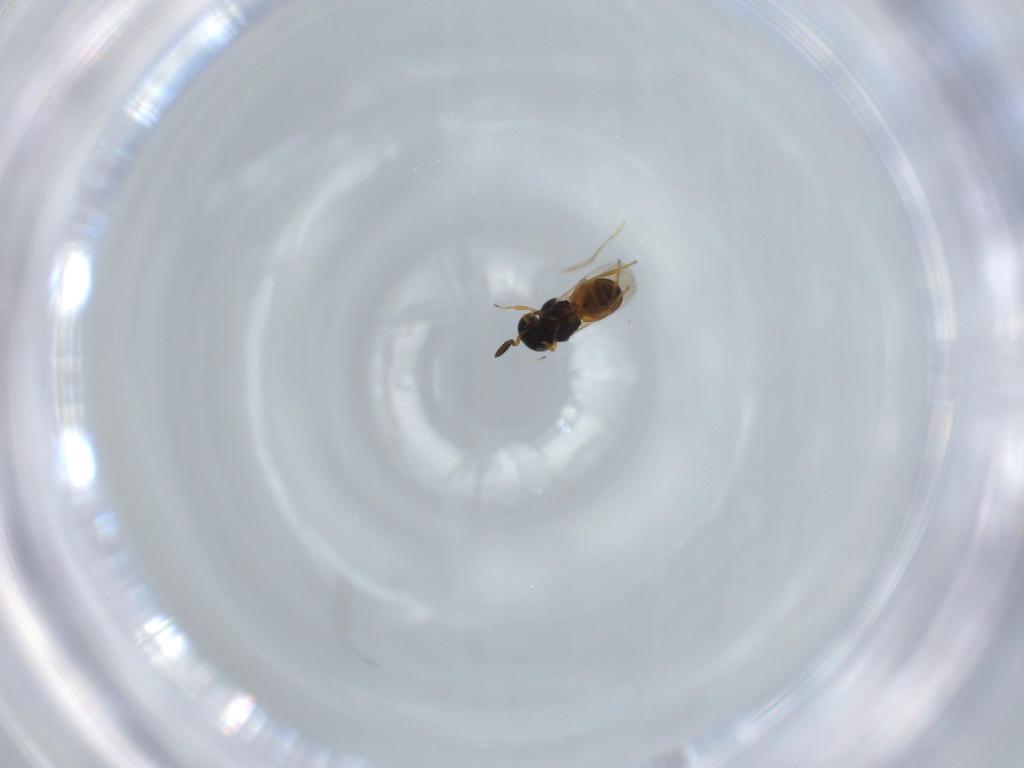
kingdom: Animalia
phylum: Arthropoda
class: Insecta
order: Hymenoptera
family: Scelionidae
